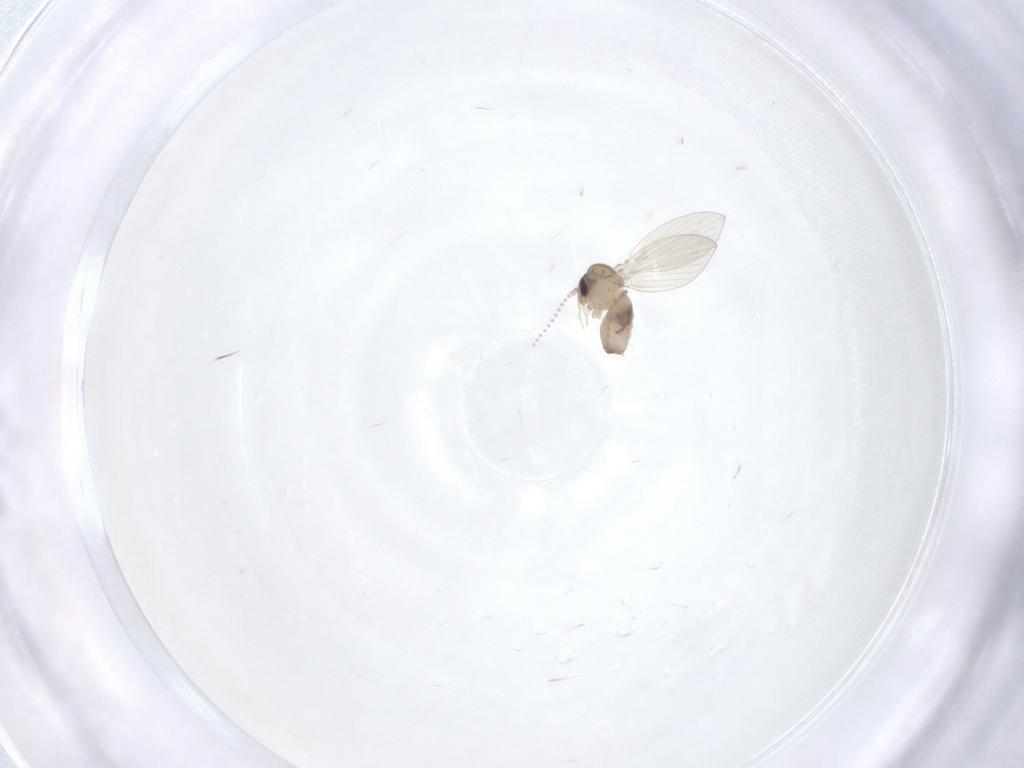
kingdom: Animalia
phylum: Arthropoda
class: Insecta
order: Diptera
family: Psychodidae
